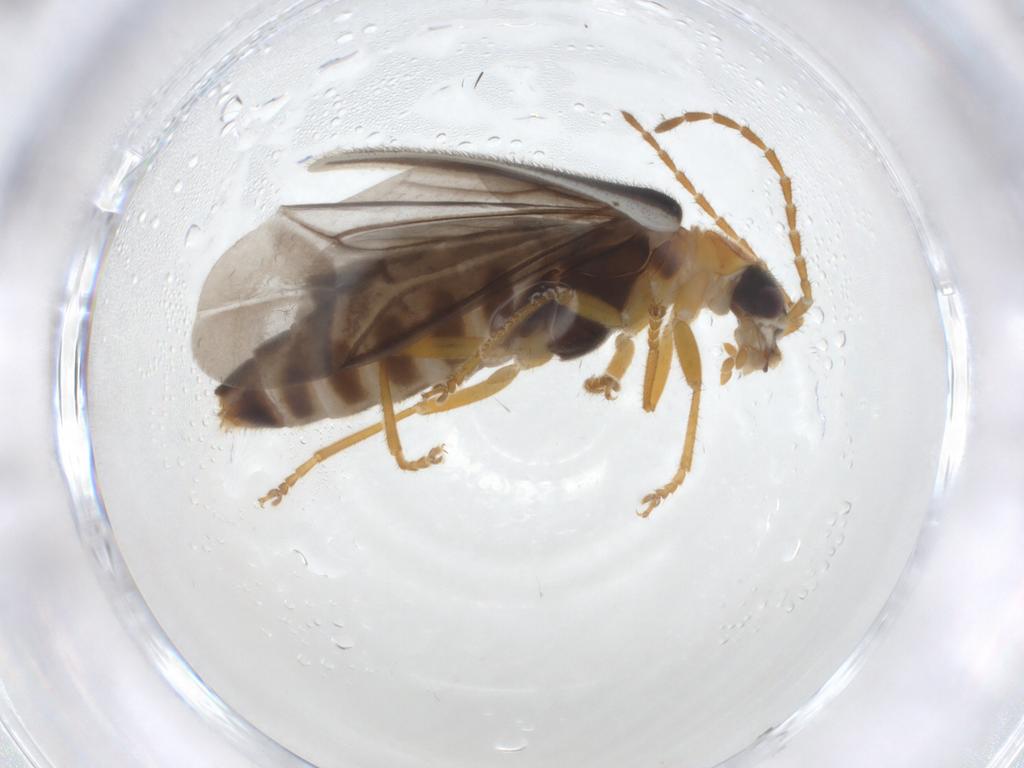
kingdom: Animalia
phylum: Arthropoda
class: Insecta
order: Coleoptera
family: Cantharidae
